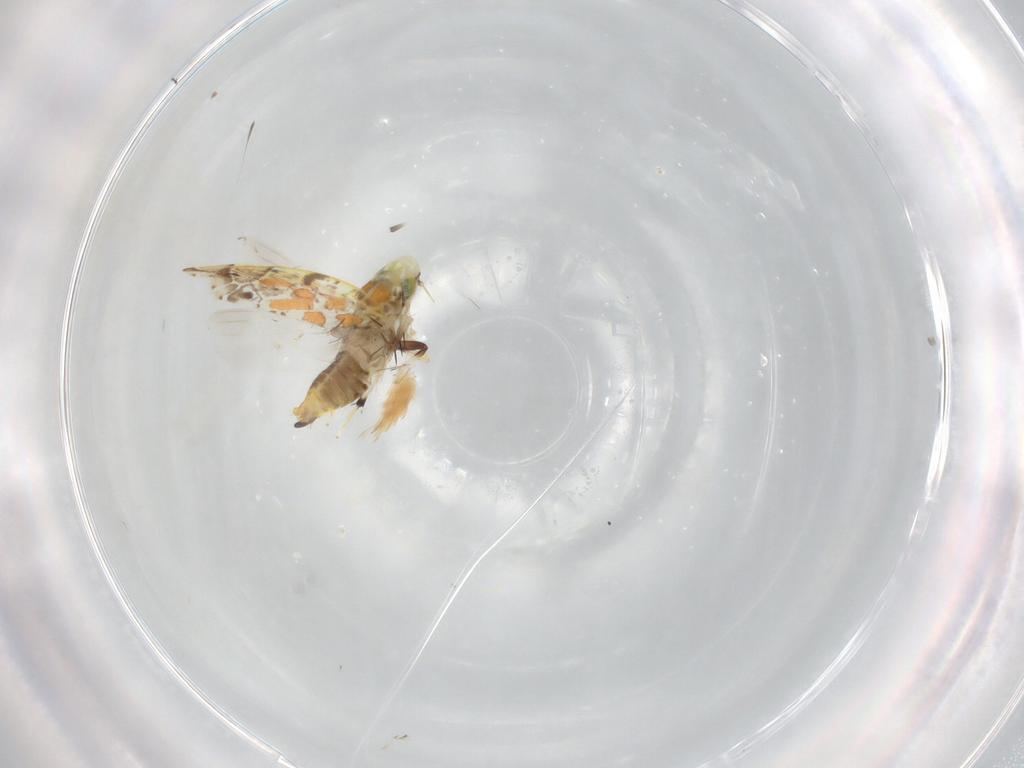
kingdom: Animalia
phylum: Arthropoda
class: Insecta
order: Hemiptera
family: Cicadellidae
